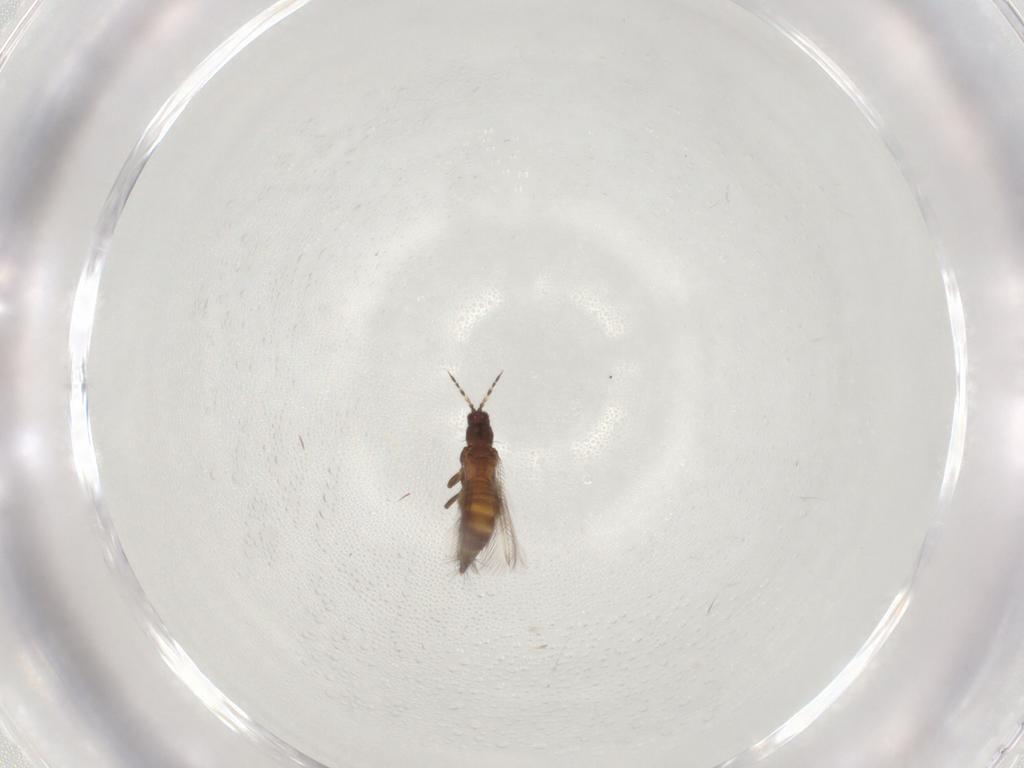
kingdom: Animalia
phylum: Arthropoda
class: Insecta
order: Thysanoptera
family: Thripidae
